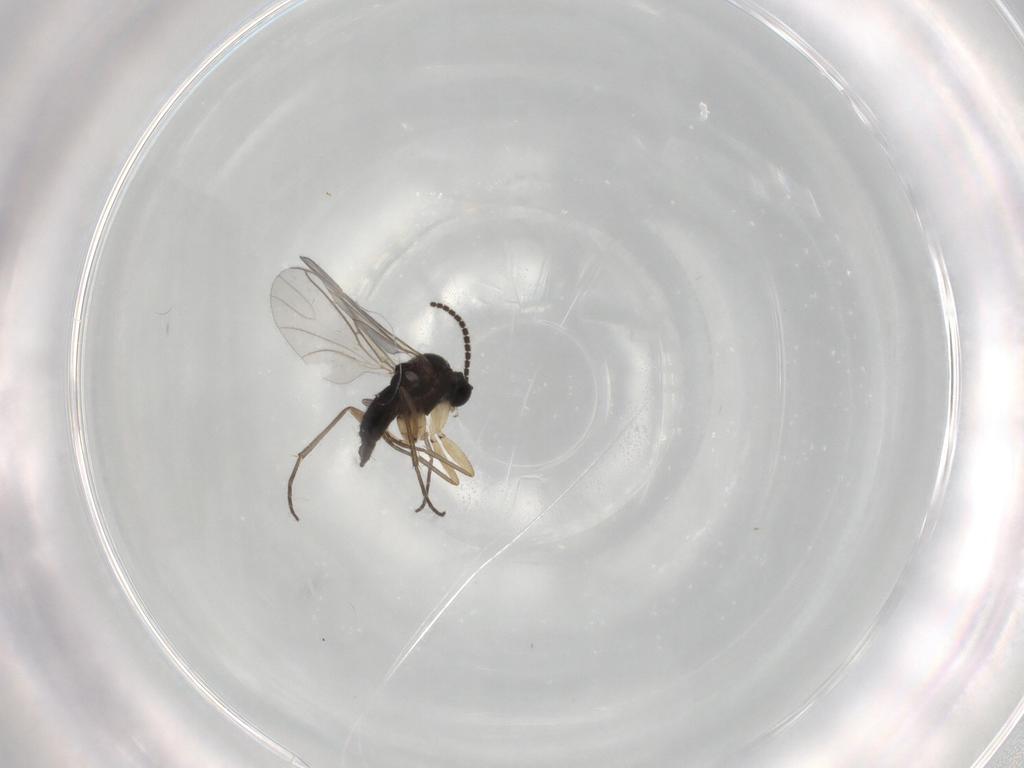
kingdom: Animalia
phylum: Arthropoda
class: Insecta
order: Diptera
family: Sciaridae
